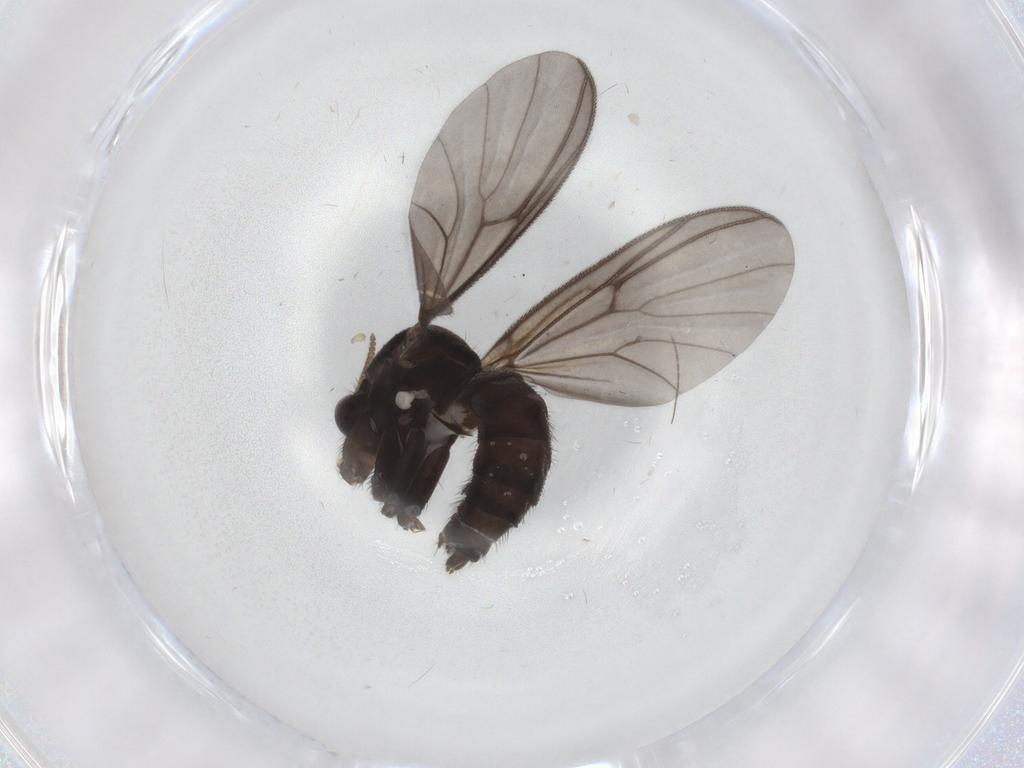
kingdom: Animalia
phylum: Arthropoda
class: Insecta
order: Diptera
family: Mycetophilidae
